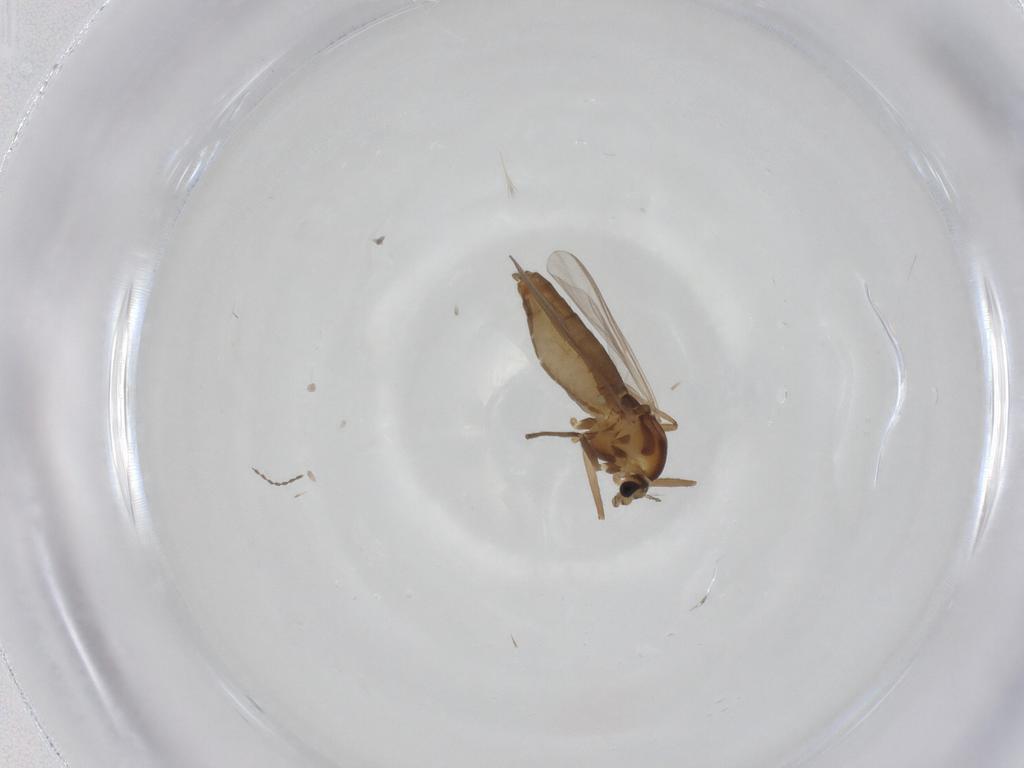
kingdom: Animalia
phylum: Arthropoda
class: Insecta
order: Diptera
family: Chironomidae
